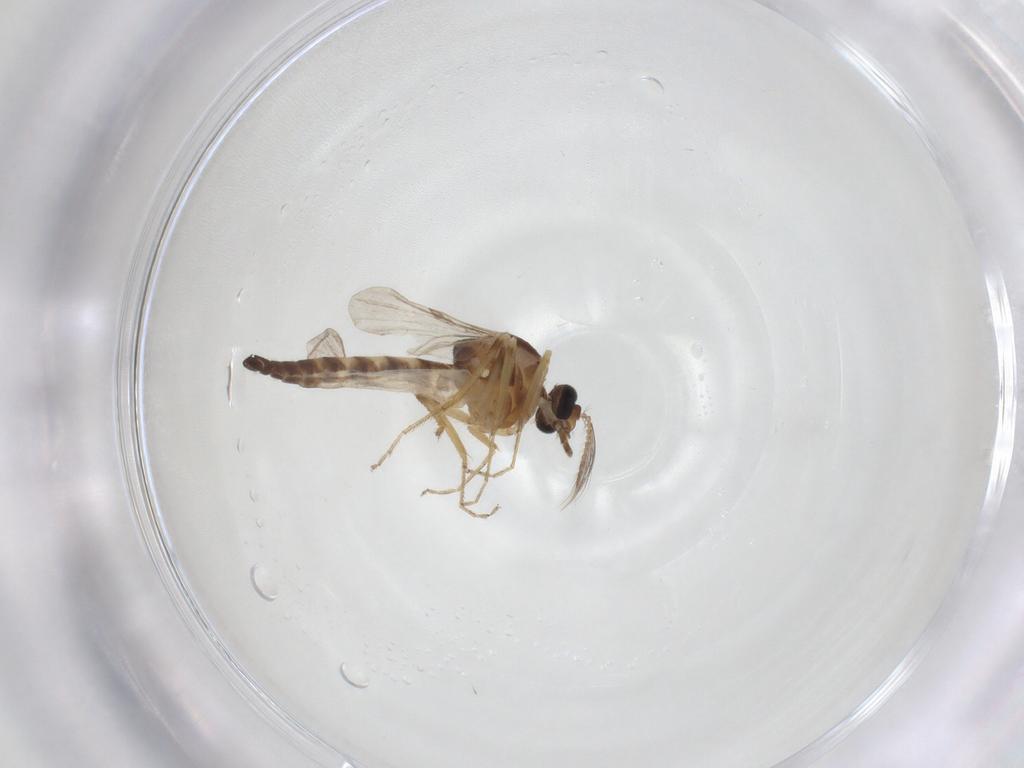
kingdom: Animalia
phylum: Arthropoda
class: Insecta
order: Diptera
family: Ceratopogonidae
